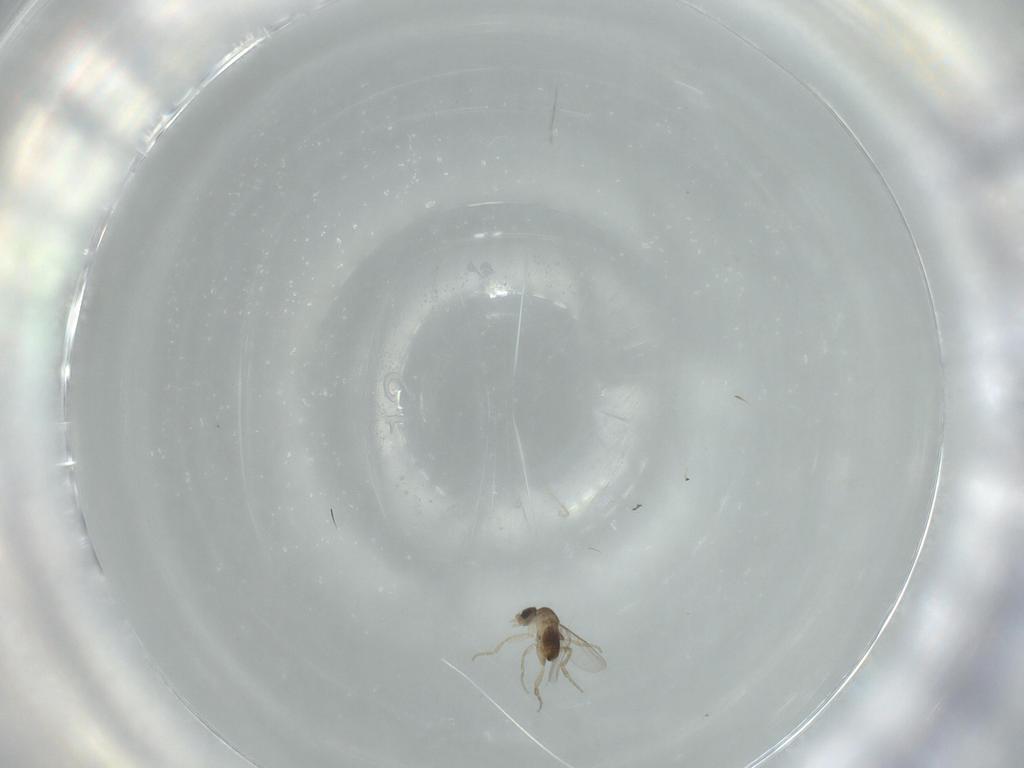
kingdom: Animalia
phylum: Arthropoda
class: Insecta
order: Diptera
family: Phoridae
